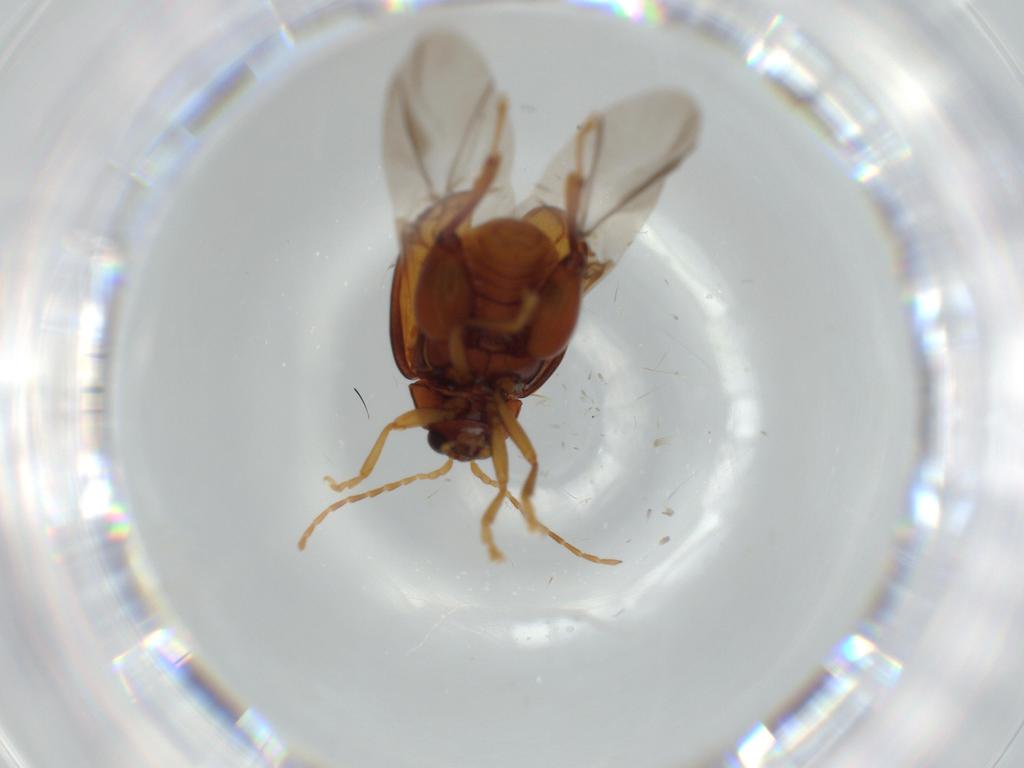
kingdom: Animalia
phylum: Arthropoda
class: Insecta
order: Coleoptera
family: Chrysomelidae
